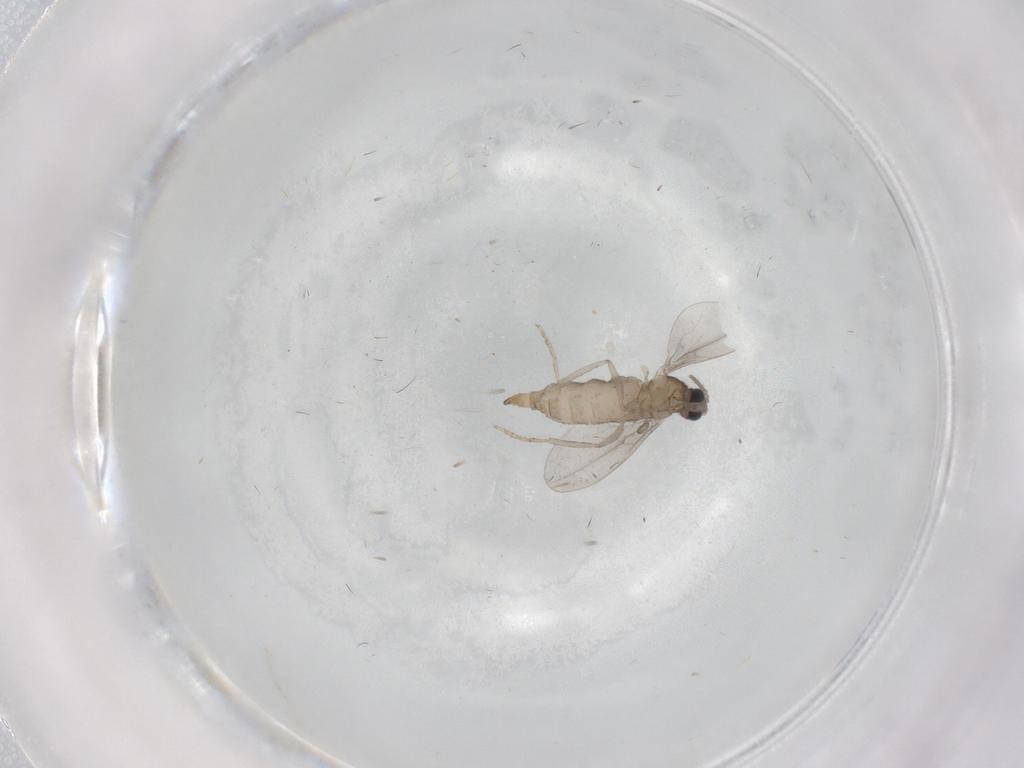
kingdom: Animalia
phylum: Arthropoda
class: Insecta
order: Diptera
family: Cecidomyiidae
